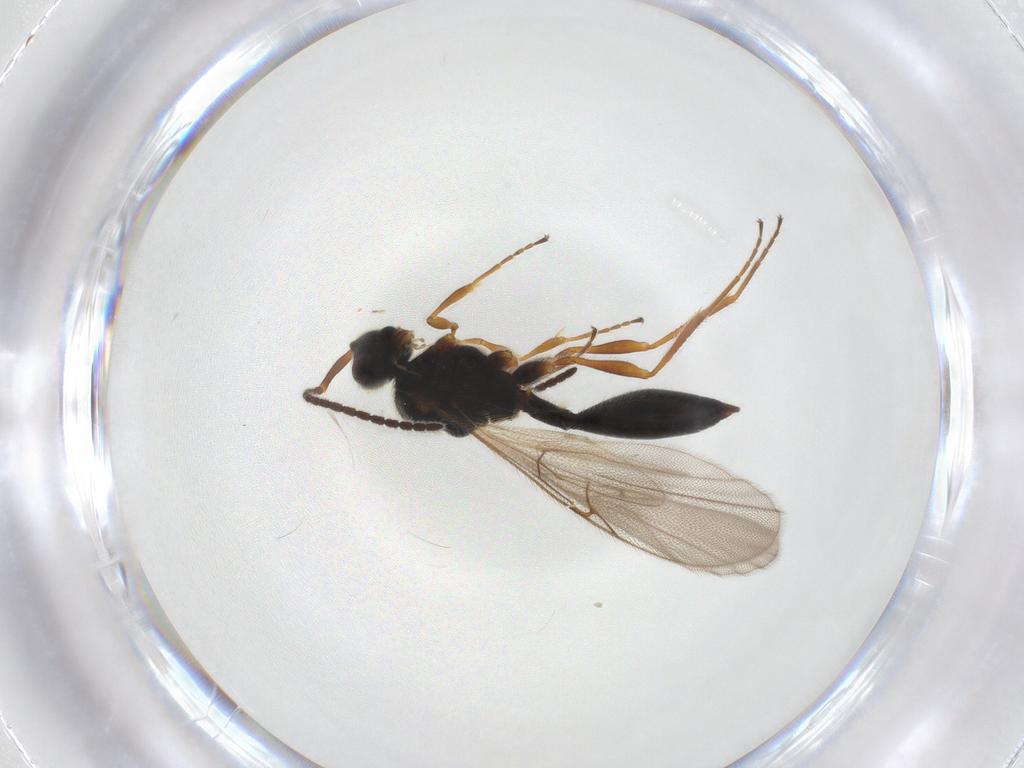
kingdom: Animalia
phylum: Arthropoda
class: Insecta
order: Hymenoptera
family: Diapriidae
